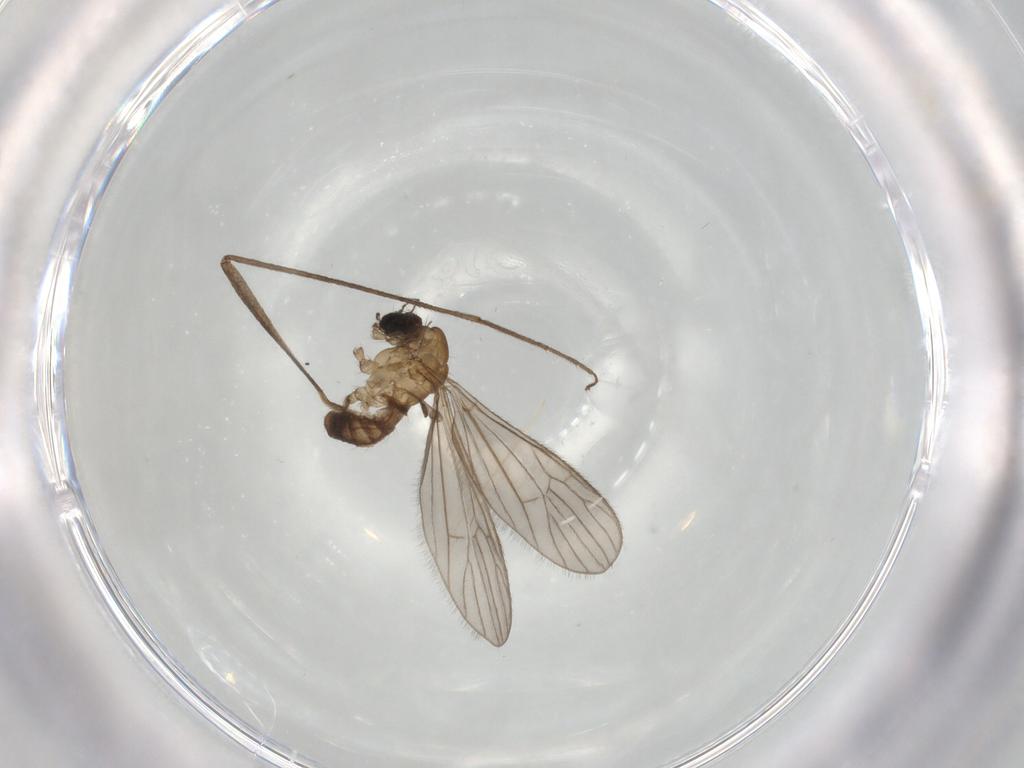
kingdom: Animalia
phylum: Arthropoda
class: Insecta
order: Diptera
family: Limoniidae
